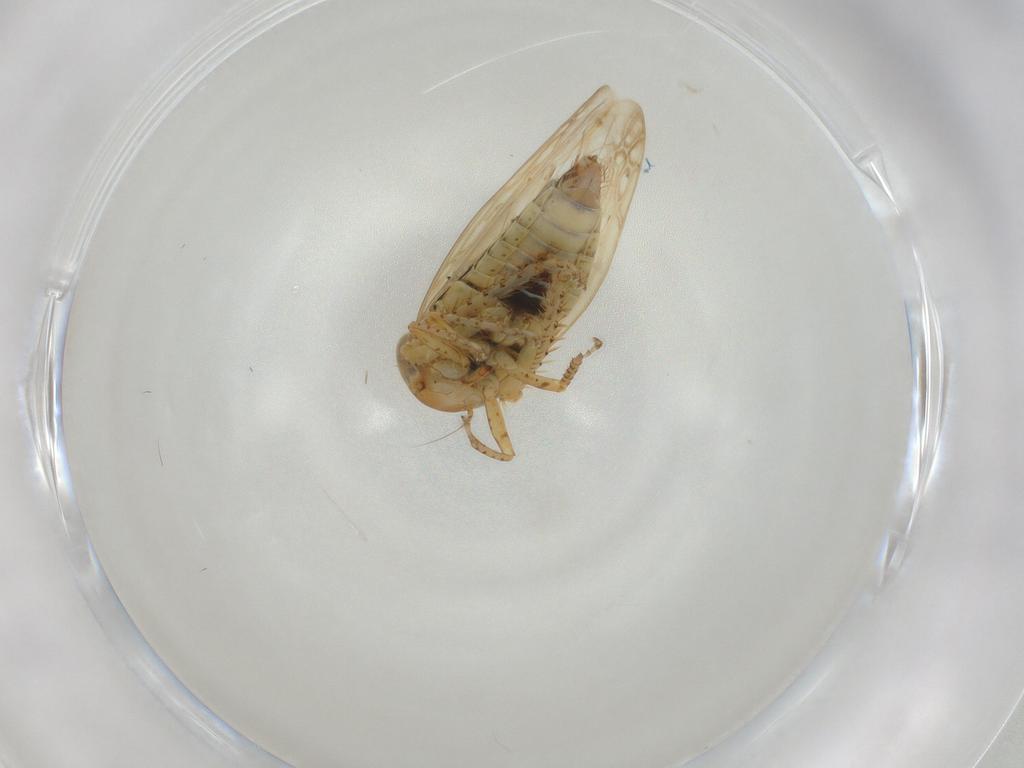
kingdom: Animalia
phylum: Arthropoda
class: Insecta
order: Hemiptera
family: Cicadellidae
